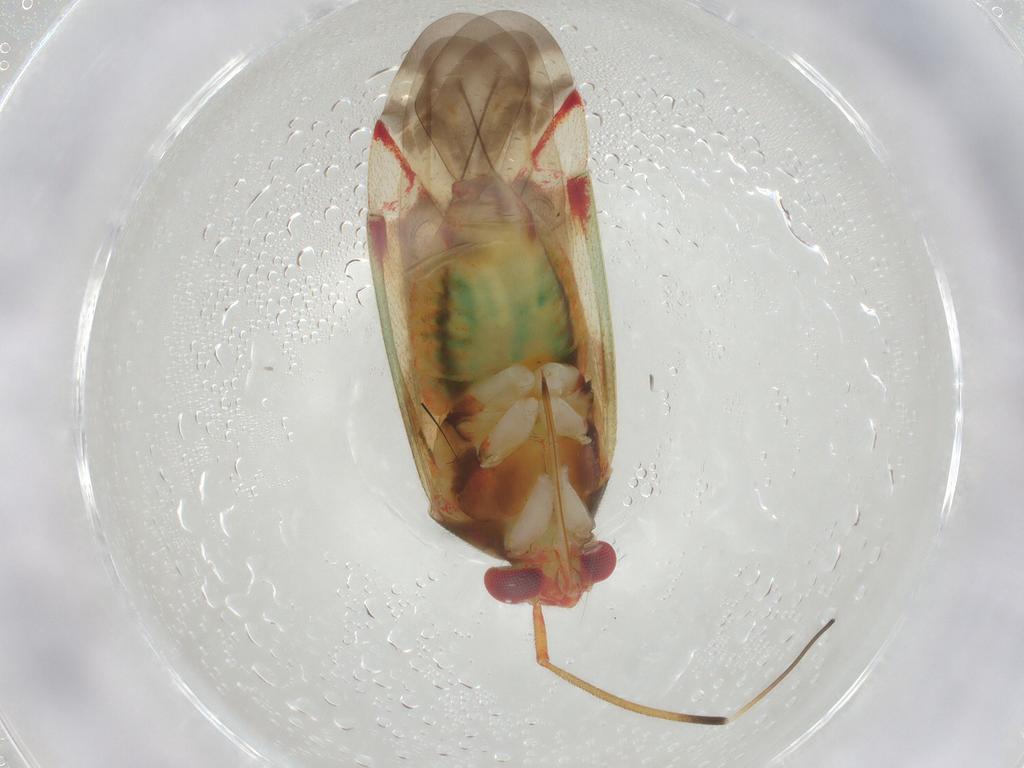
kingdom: Animalia
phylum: Arthropoda
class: Insecta
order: Hemiptera
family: Miridae
